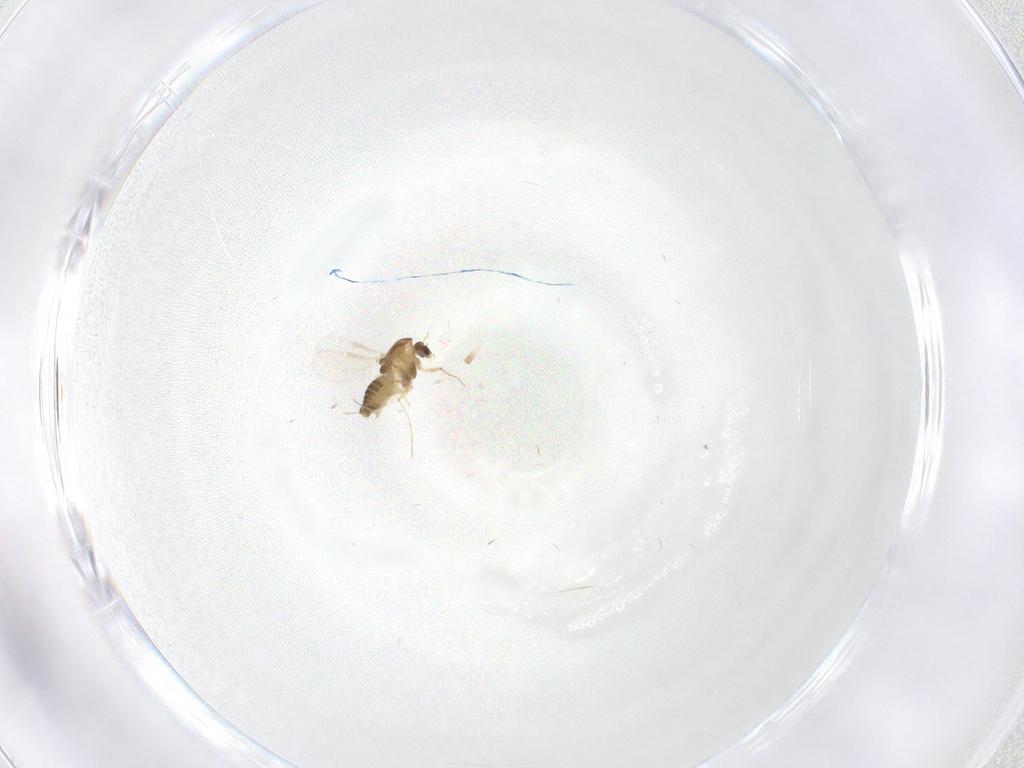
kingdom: Animalia
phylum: Arthropoda
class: Insecta
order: Diptera
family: Chironomidae
